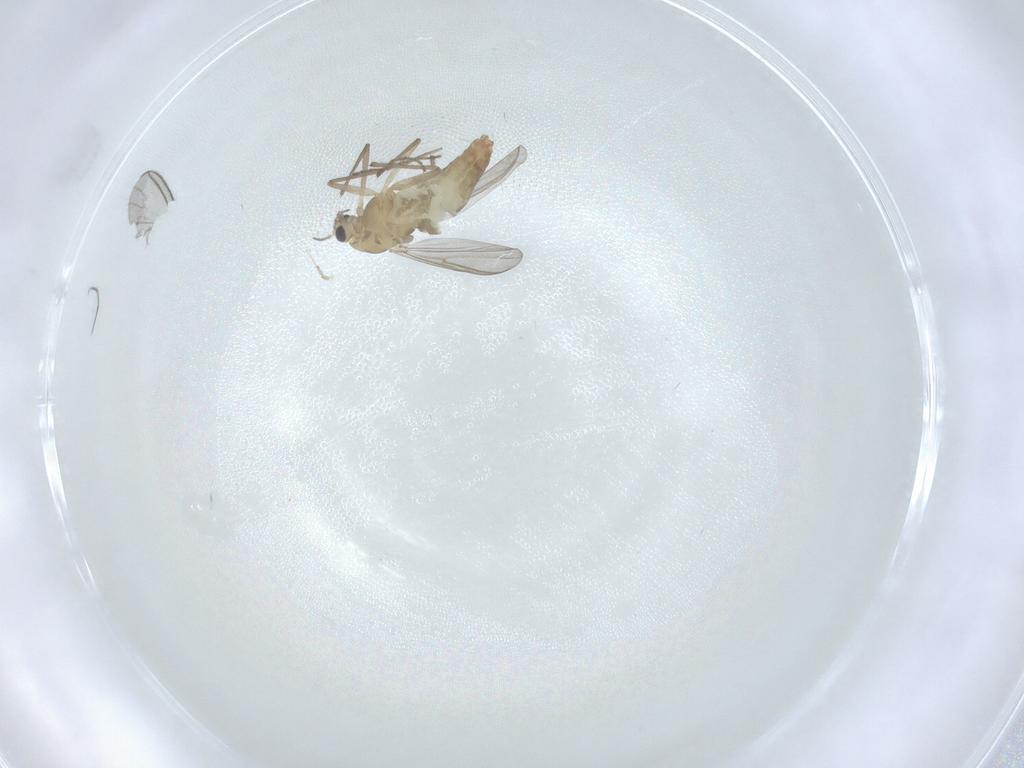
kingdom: Animalia
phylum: Arthropoda
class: Insecta
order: Diptera
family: Chironomidae
